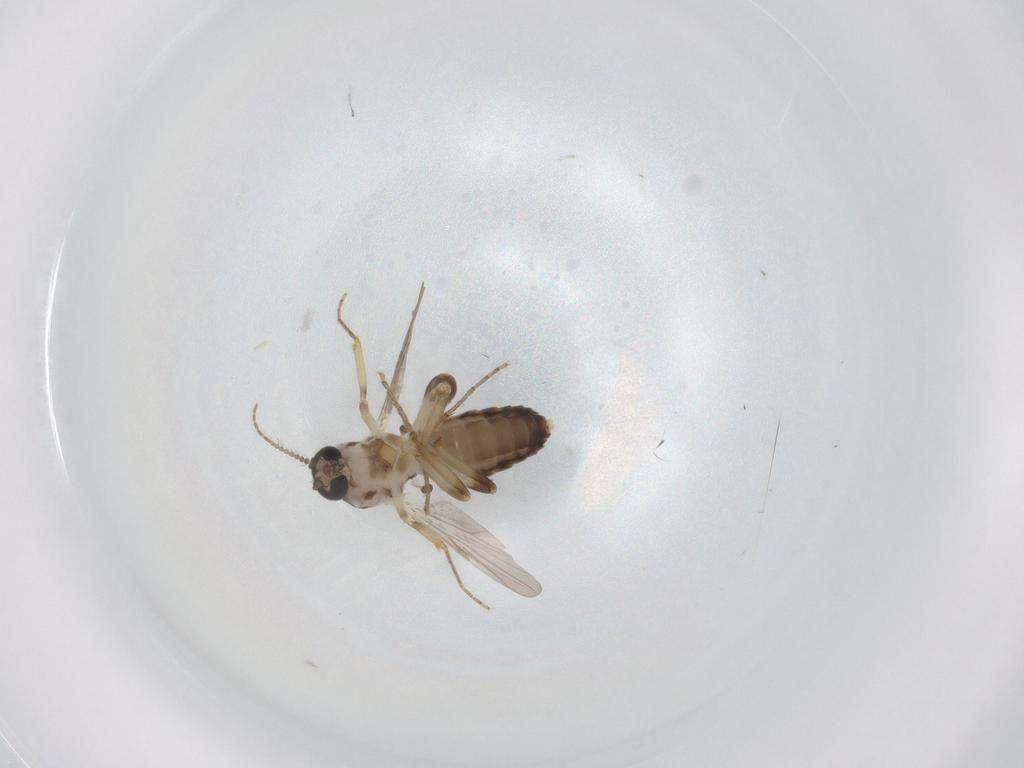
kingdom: Animalia
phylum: Arthropoda
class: Insecta
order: Diptera
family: Ceratopogonidae
